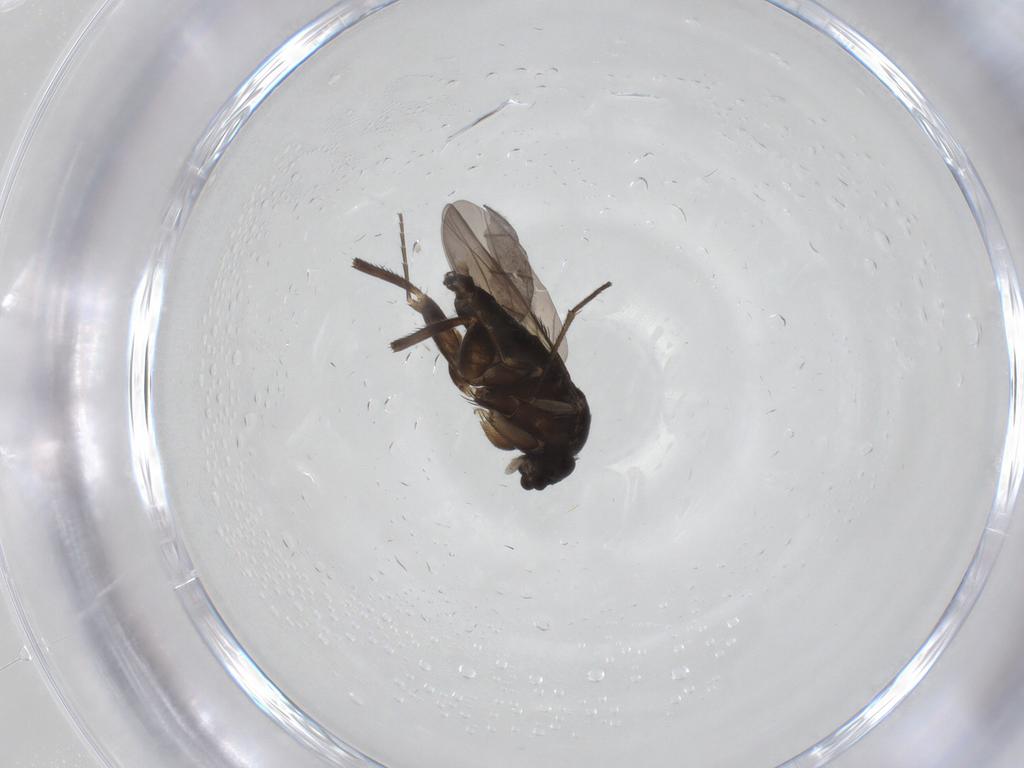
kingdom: Animalia
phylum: Arthropoda
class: Insecta
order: Diptera
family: Phoridae
